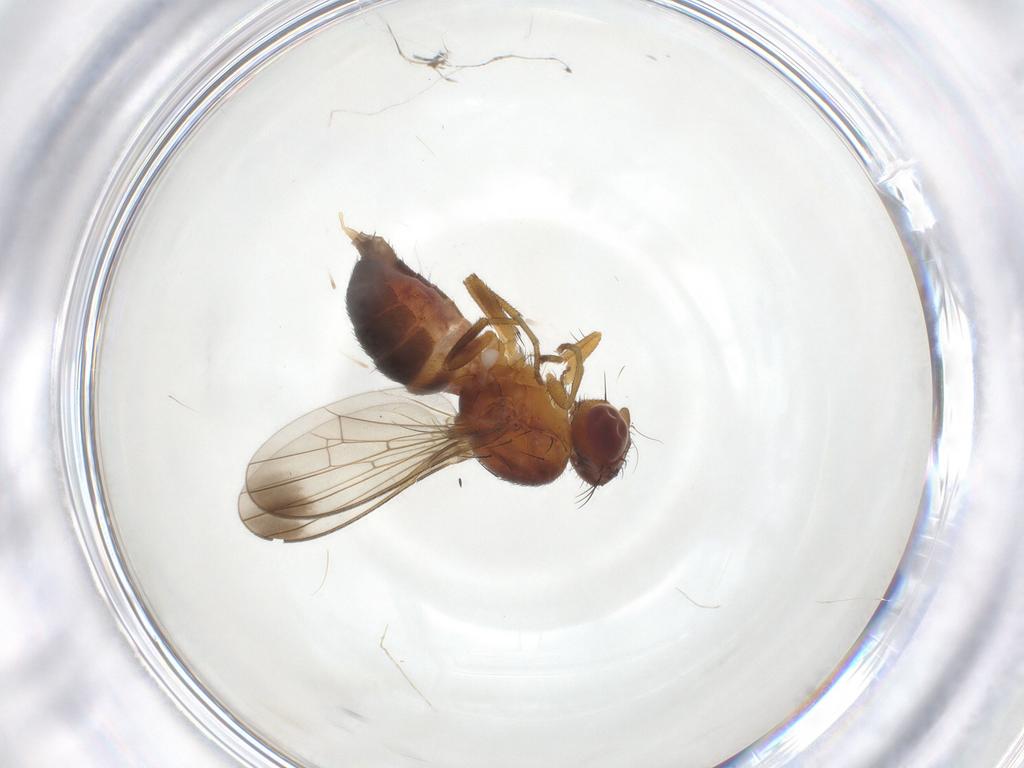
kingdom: Animalia
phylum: Arthropoda
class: Insecta
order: Diptera
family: Piophilidae
